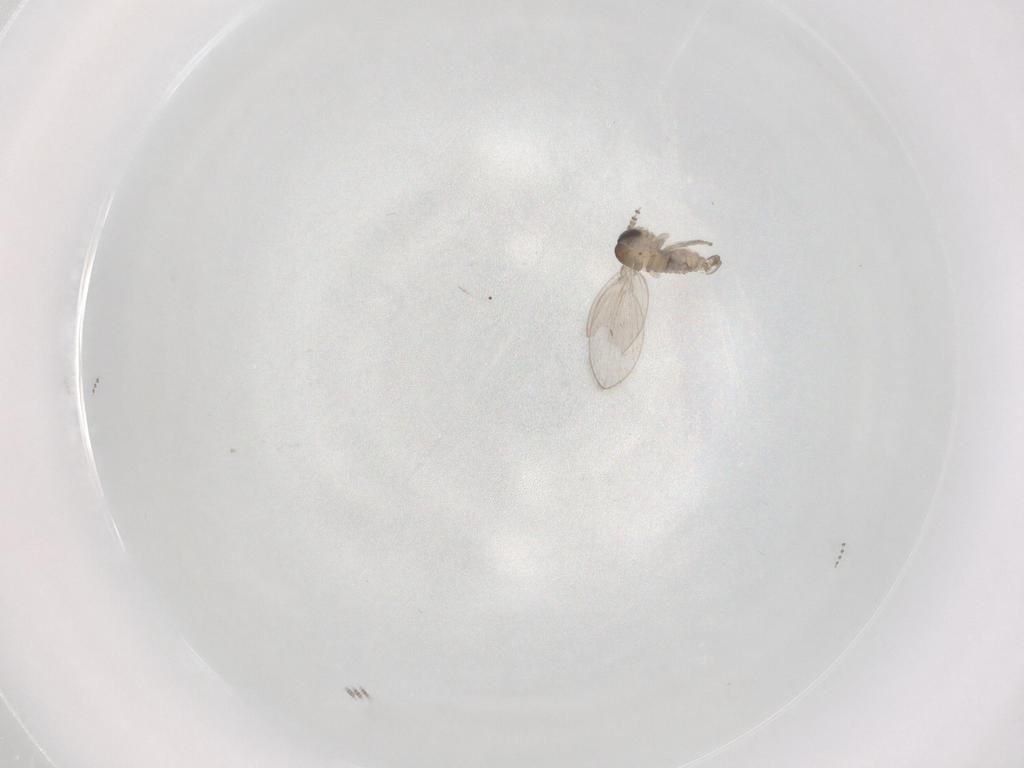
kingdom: Animalia
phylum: Arthropoda
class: Insecta
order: Diptera
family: Psychodidae
